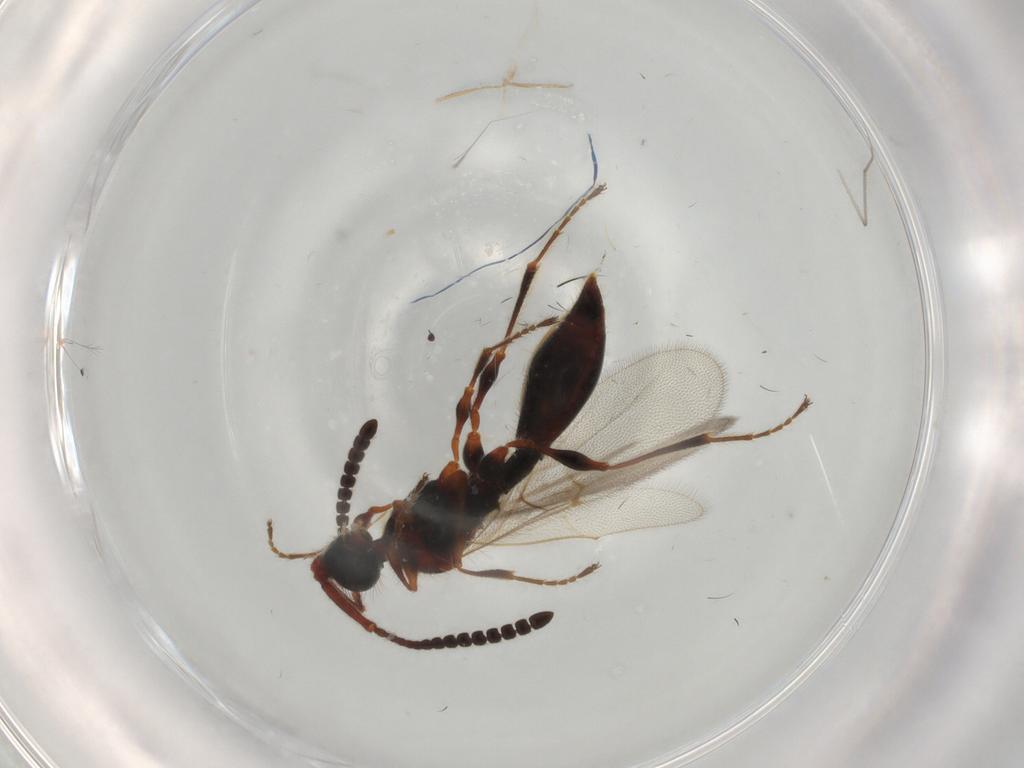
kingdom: Animalia
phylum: Arthropoda
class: Insecta
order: Hymenoptera
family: Diapriidae
